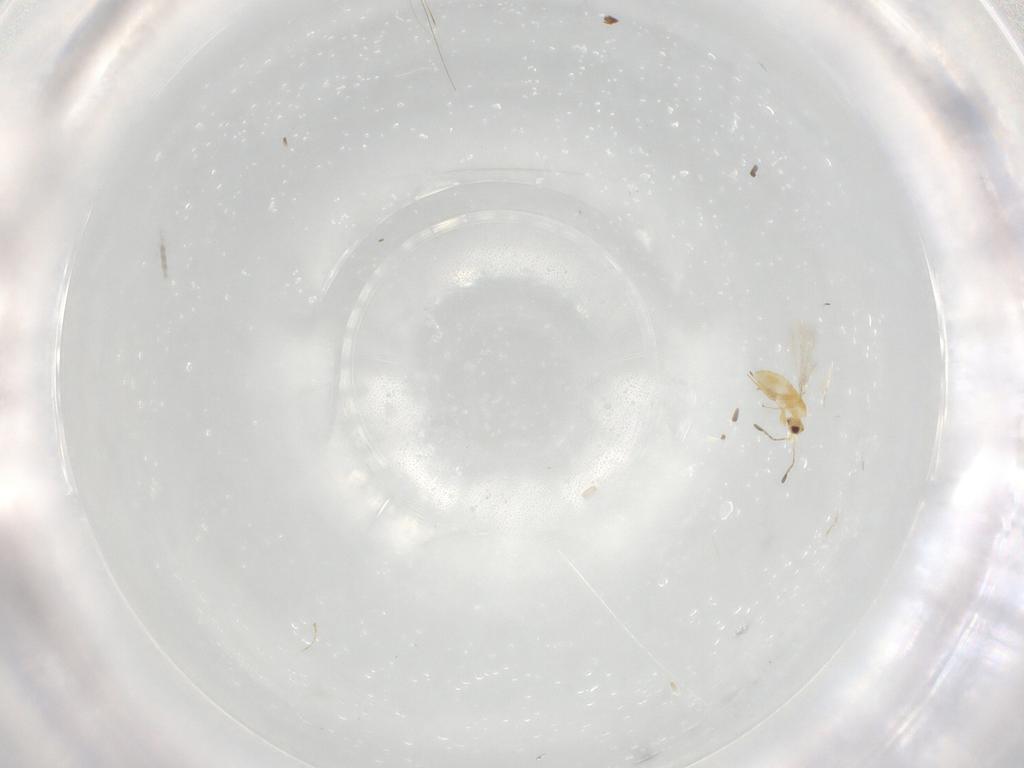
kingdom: Animalia
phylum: Arthropoda
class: Insecta
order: Hymenoptera
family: Mymaridae
